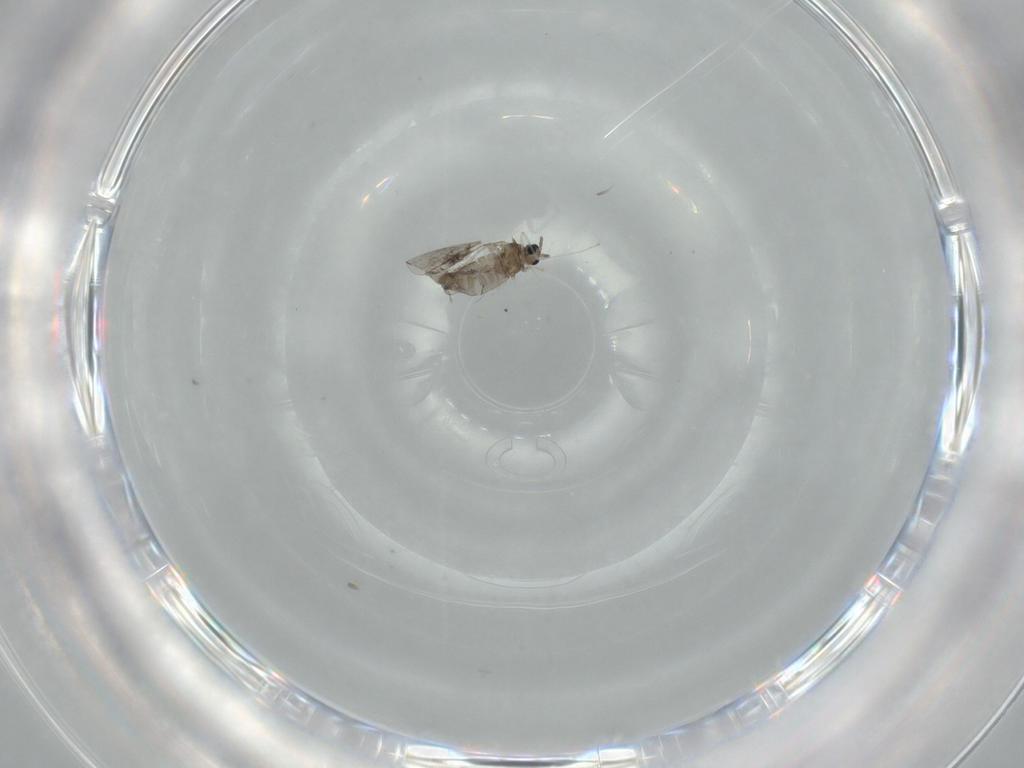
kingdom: Animalia
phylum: Arthropoda
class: Insecta
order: Diptera
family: Cecidomyiidae
